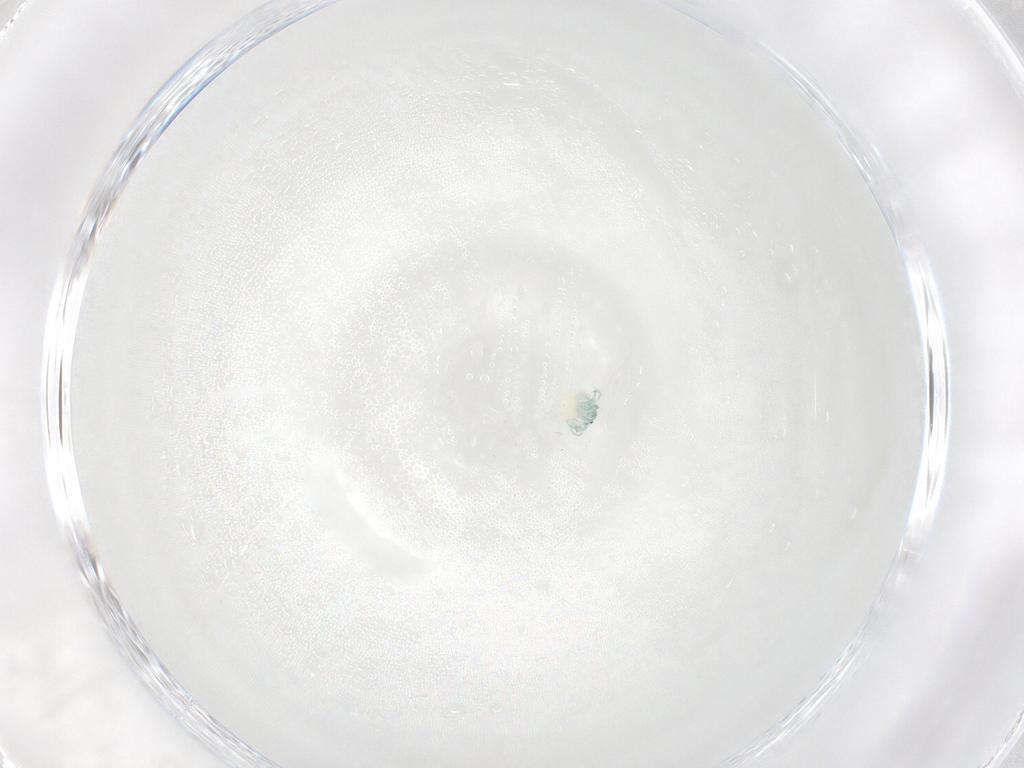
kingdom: Animalia
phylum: Arthropoda
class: Arachnida
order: Trombidiformes
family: Arrenuridae
